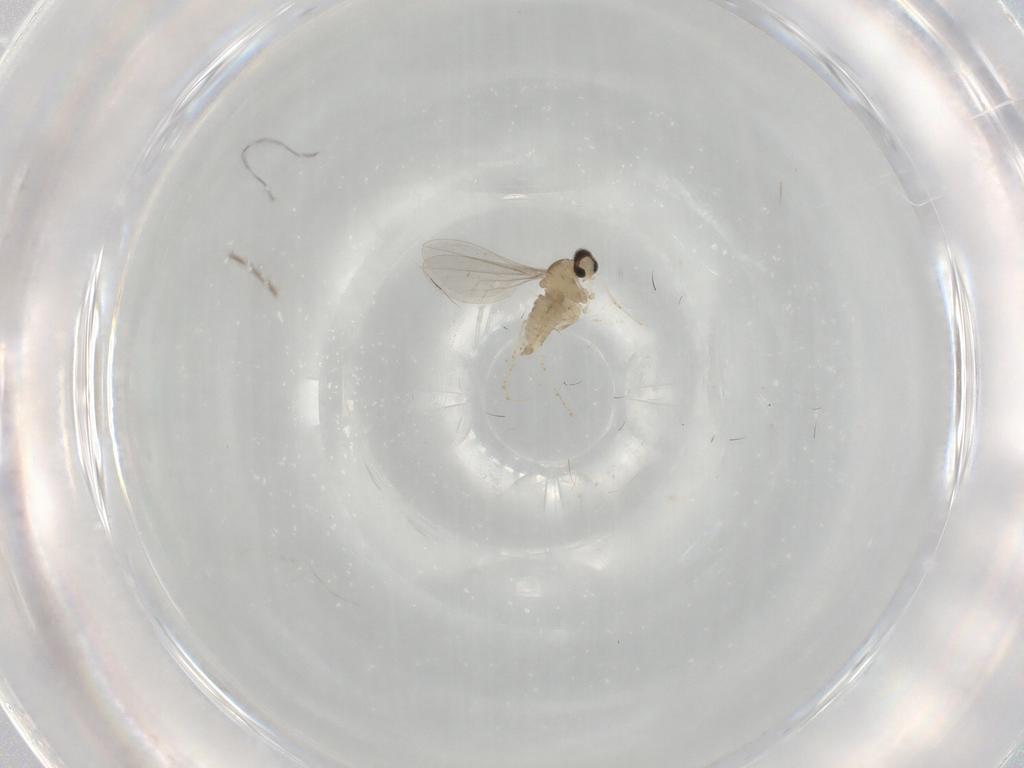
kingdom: Animalia
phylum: Arthropoda
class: Insecta
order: Diptera
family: Cecidomyiidae
